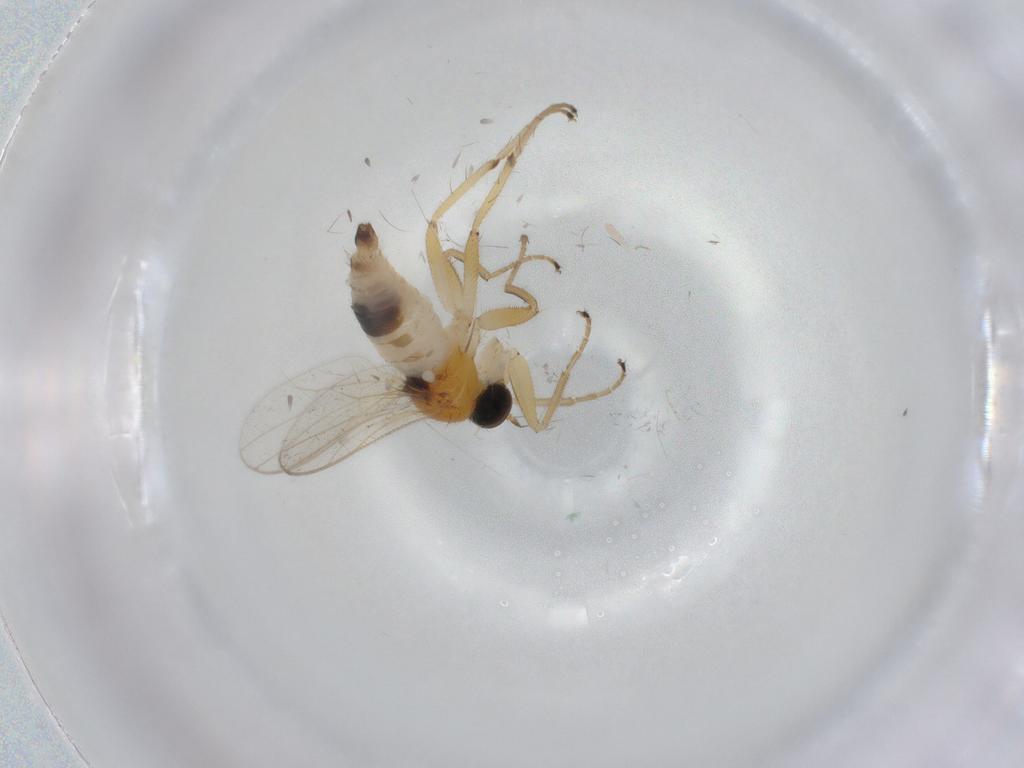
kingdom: Animalia
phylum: Arthropoda
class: Insecta
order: Diptera
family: Hybotidae
